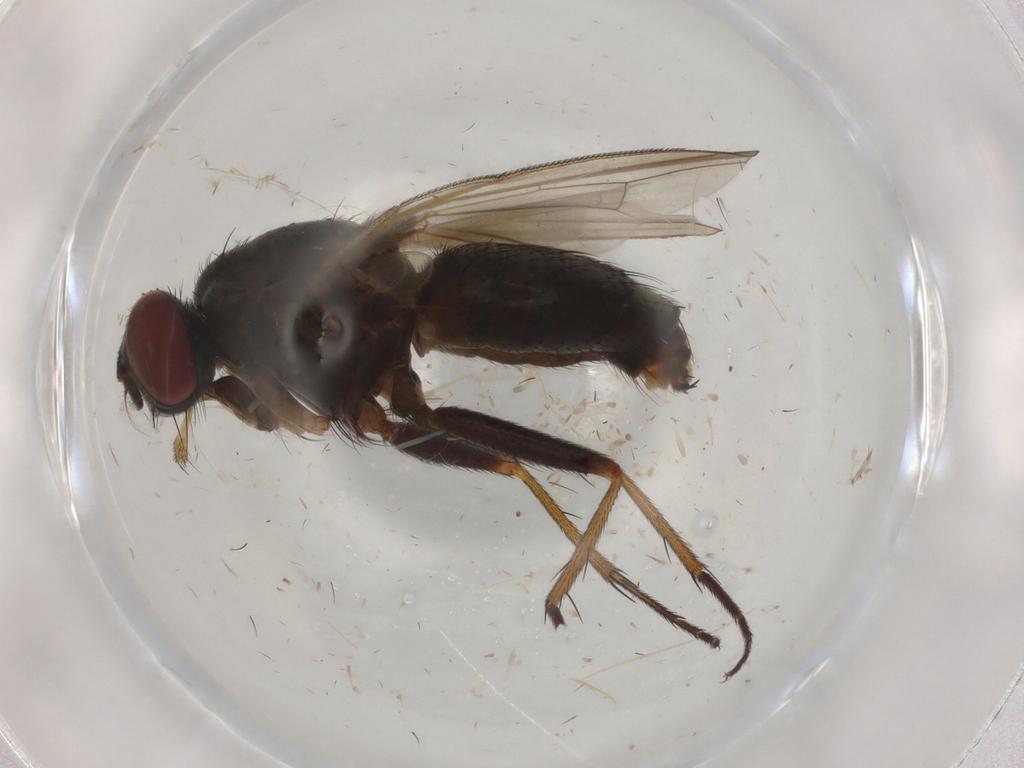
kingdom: Animalia
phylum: Arthropoda
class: Insecta
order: Diptera
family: Muscidae
